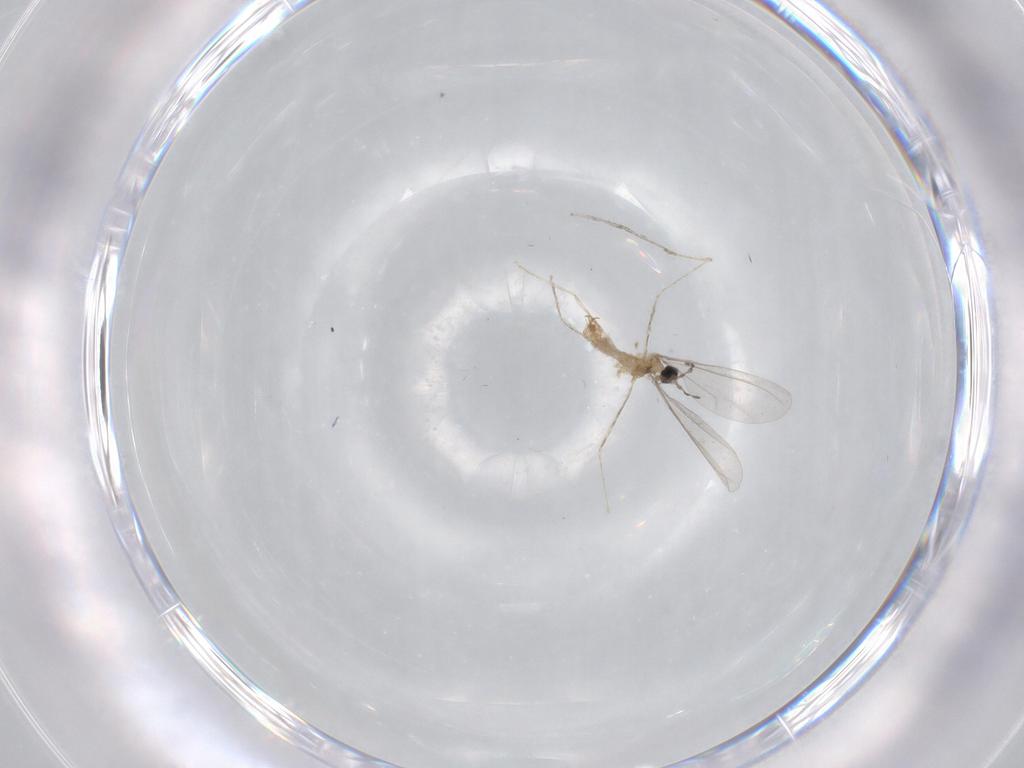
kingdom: Animalia
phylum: Arthropoda
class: Insecta
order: Diptera
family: Cecidomyiidae
